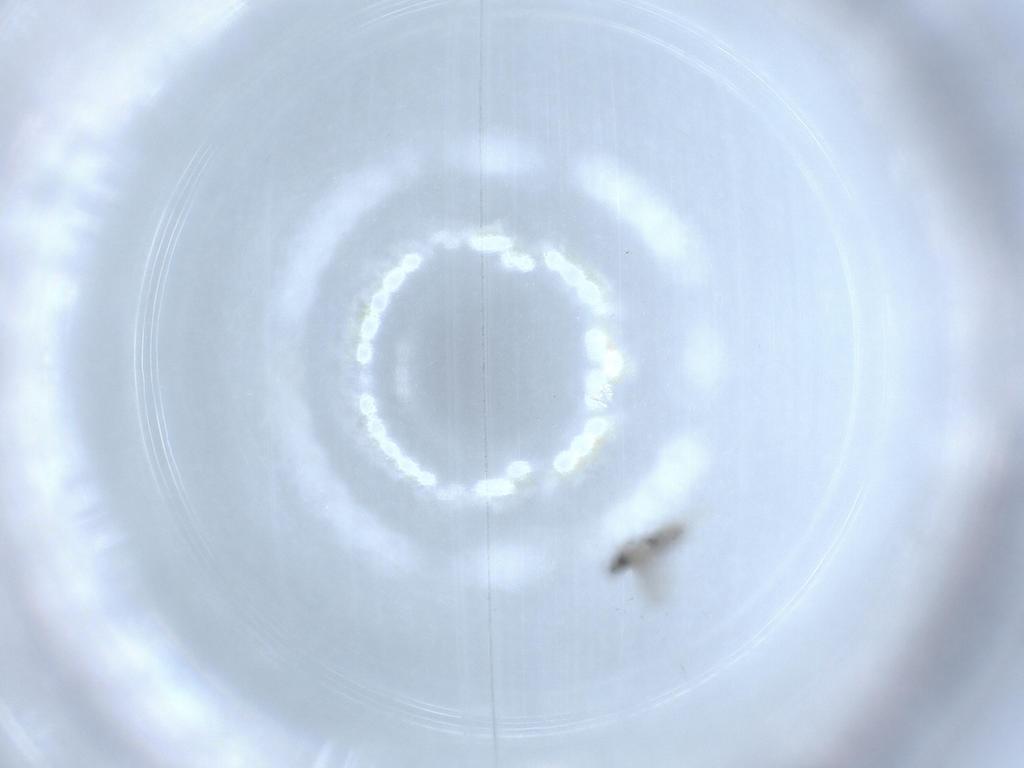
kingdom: Animalia
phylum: Arthropoda
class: Insecta
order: Diptera
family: Cecidomyiidae
